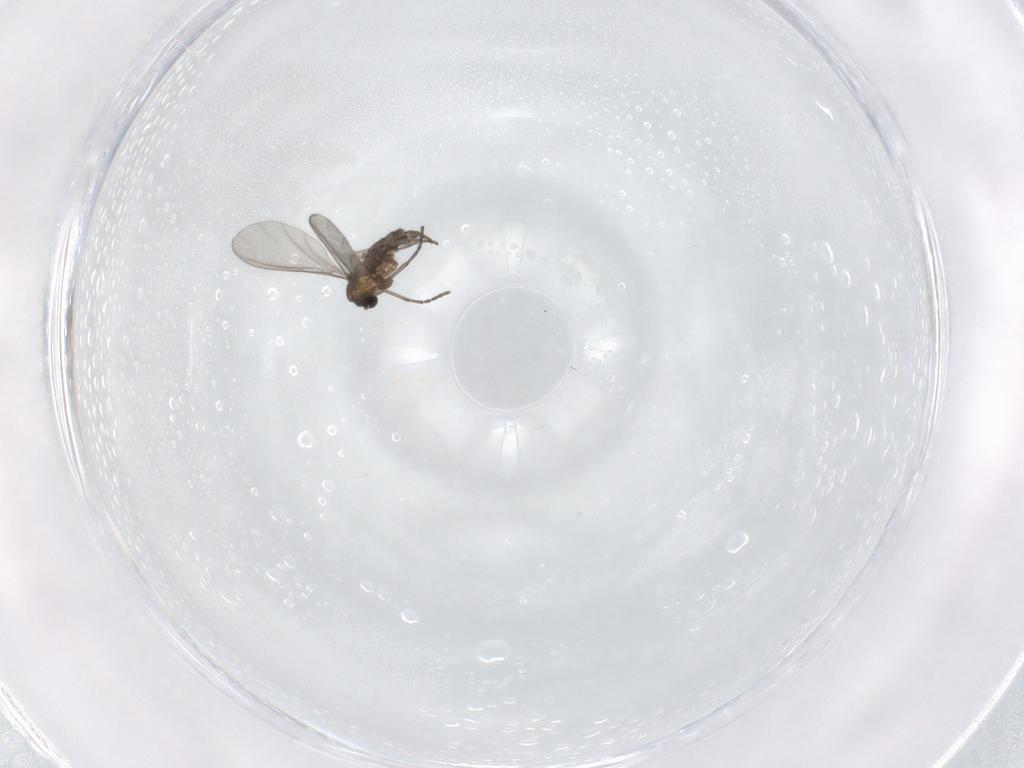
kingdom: Animalia
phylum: Arthropoda
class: Insecta
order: Diptera
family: Sciaridae
